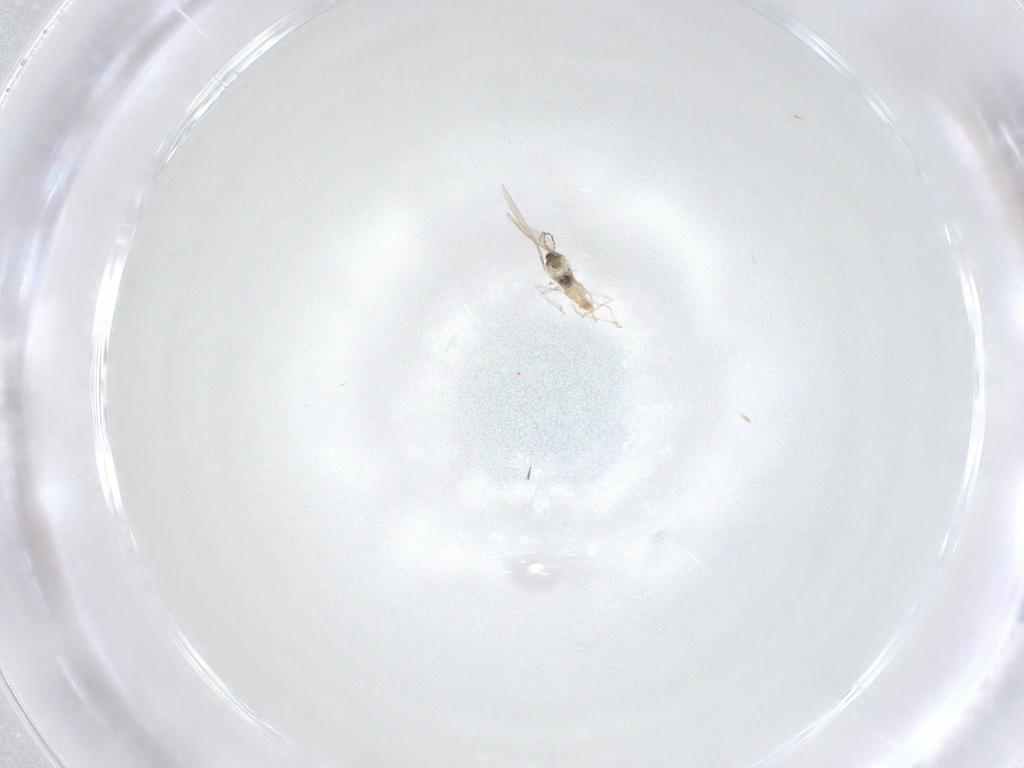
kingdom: Animalia
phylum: Arthropoda
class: Insecta
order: Diptera
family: Cecidomyiidae
